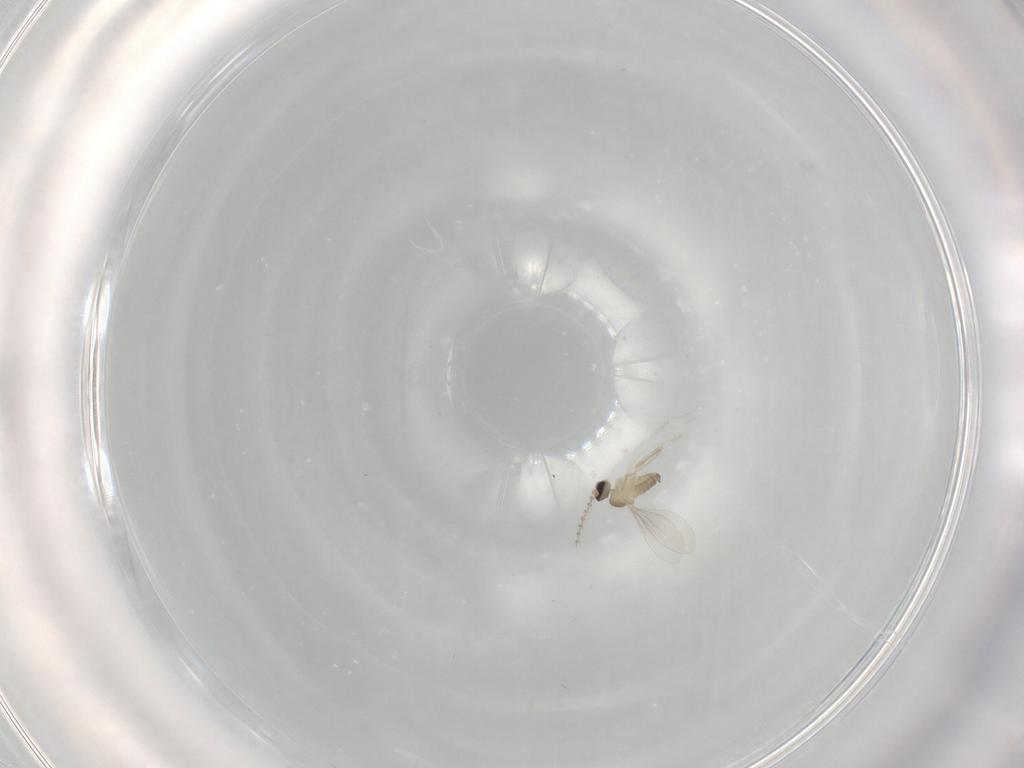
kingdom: Animalia
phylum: Arthropoda
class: Insecta
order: Diptera
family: Cecidomyiidae
